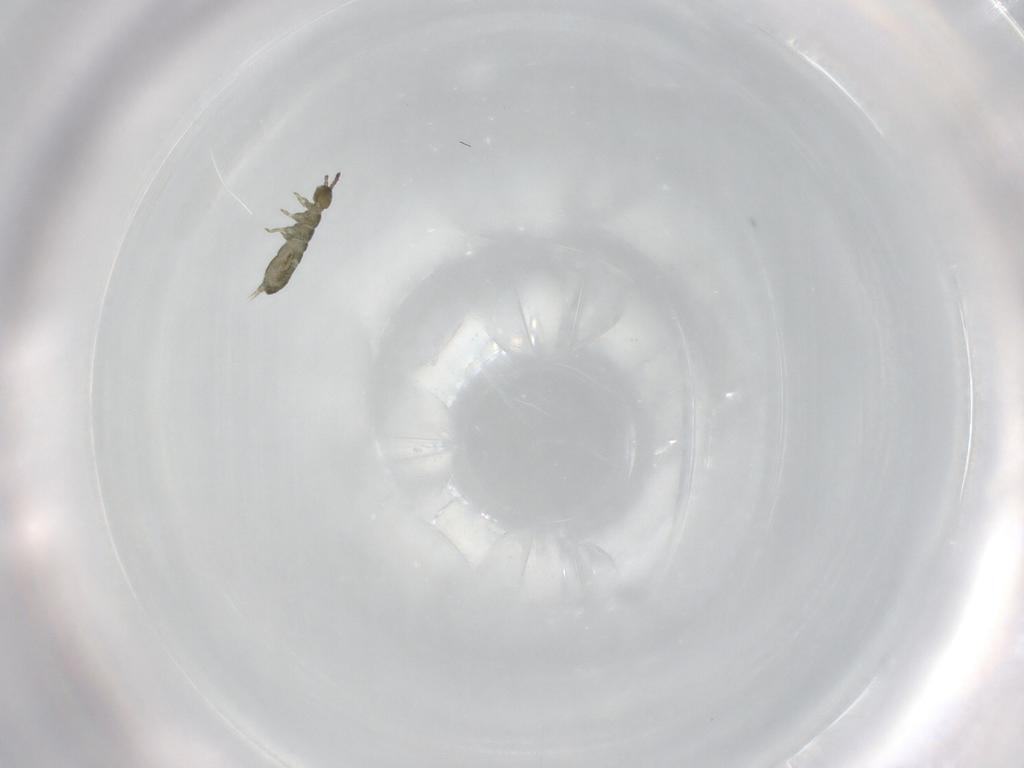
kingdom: Animalia
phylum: Arthropoda
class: Collembola
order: Entomobryomorpha
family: Isotomidae
